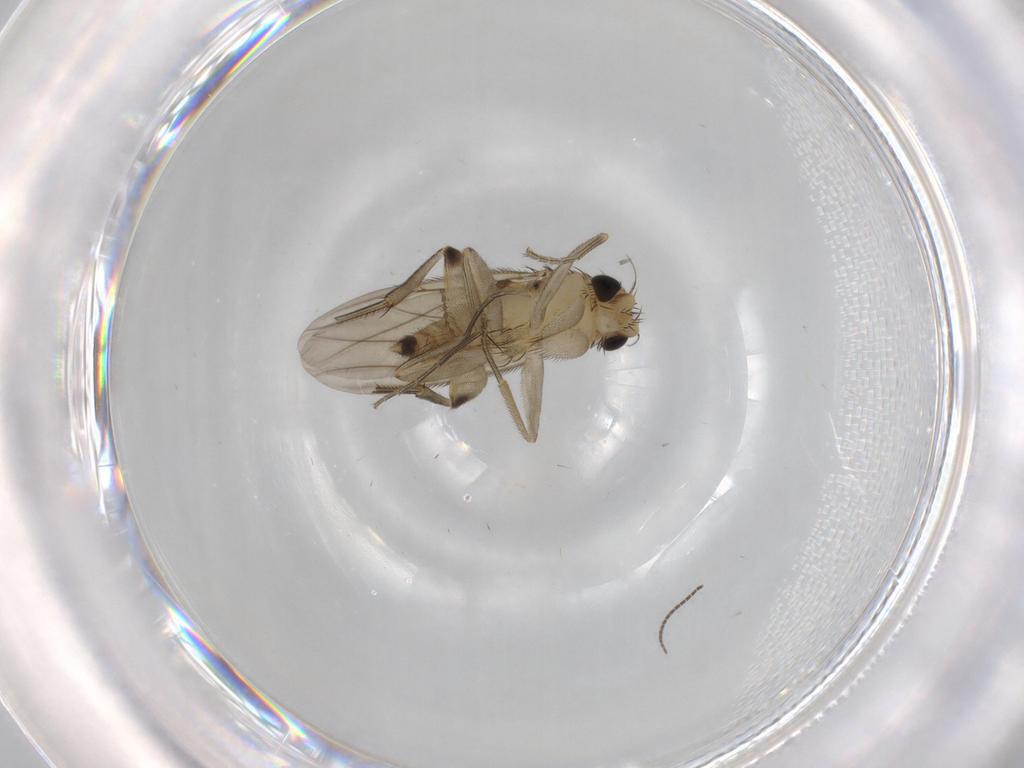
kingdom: Animalia
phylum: Arthropoda
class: Insecta
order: Diptera
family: Phoridae
